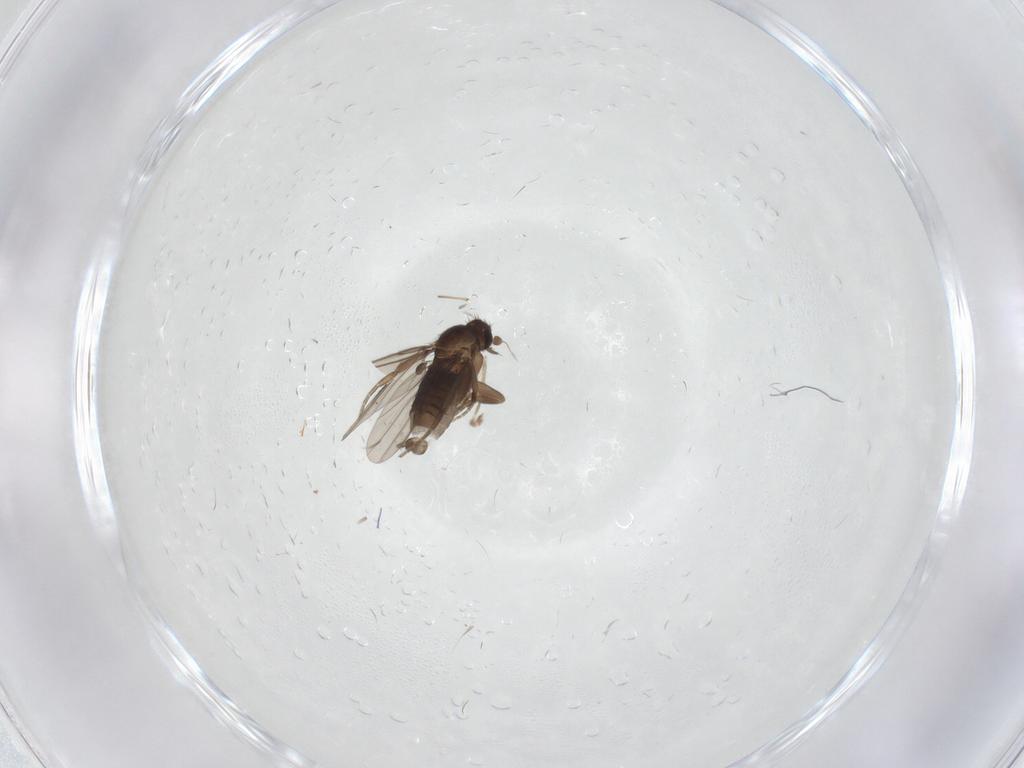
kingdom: Animalia
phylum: Arthropoda
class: Insecta
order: Diptera
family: Phoridae
